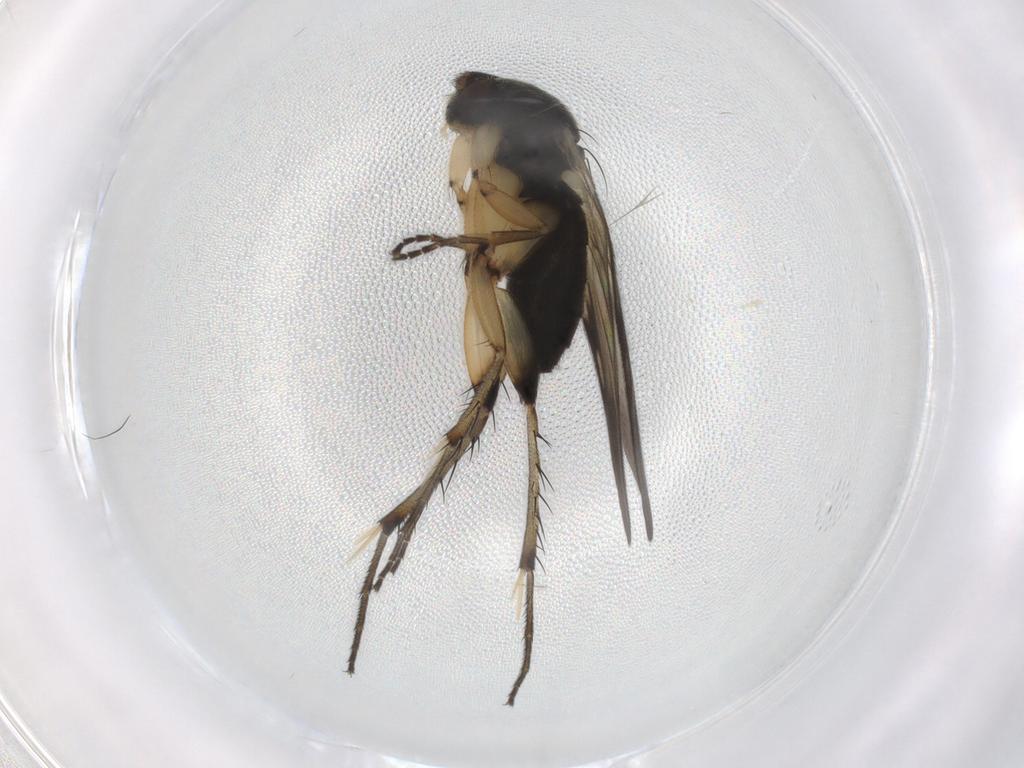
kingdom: Animalia
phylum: Arthropoda
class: Insecta
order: Diptera
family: Mycetophilidae
